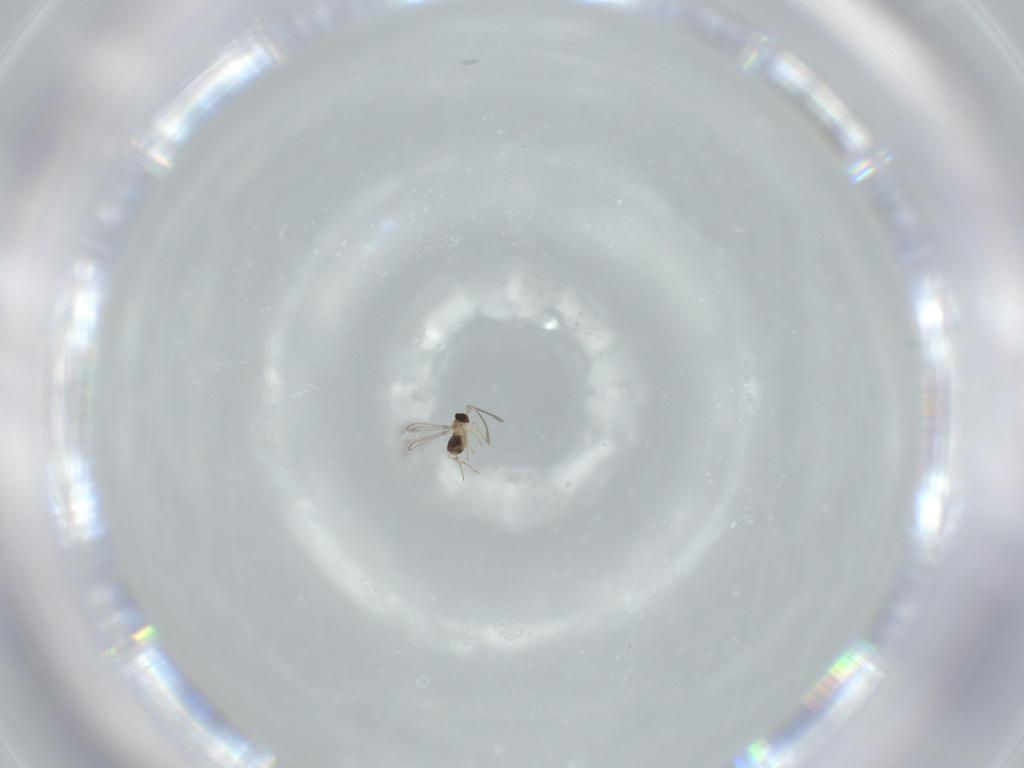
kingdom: Animalia
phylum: Arthropoda
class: Insecta
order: Hymenoptera
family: Mymaridae
